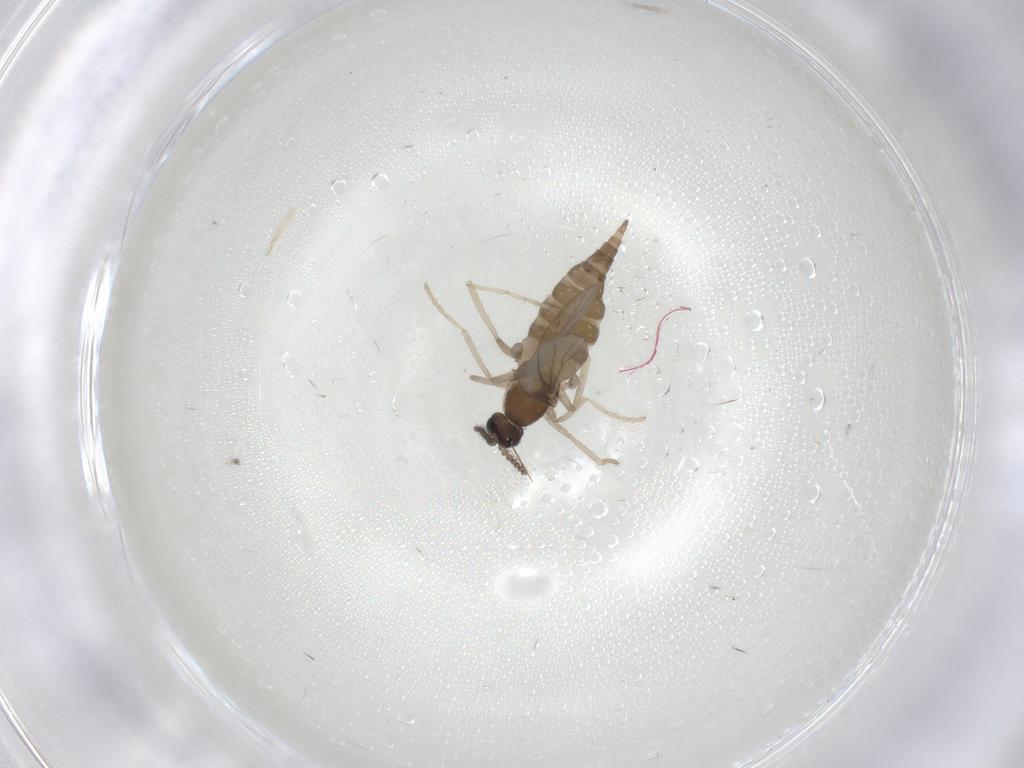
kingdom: Animalia
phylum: Arthropoda
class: Insecta
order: Diptera
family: Cecidomyiidae
